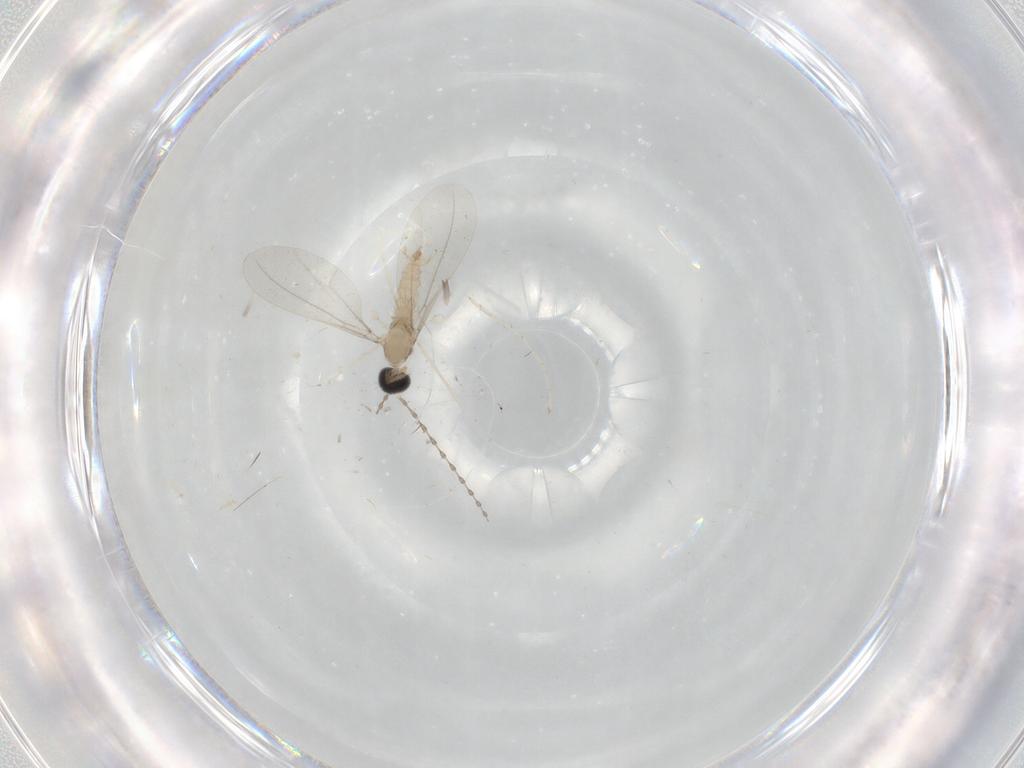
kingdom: Animalia
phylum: Arthropoda
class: Insecta
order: Diptera
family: Cecidomyiidae
